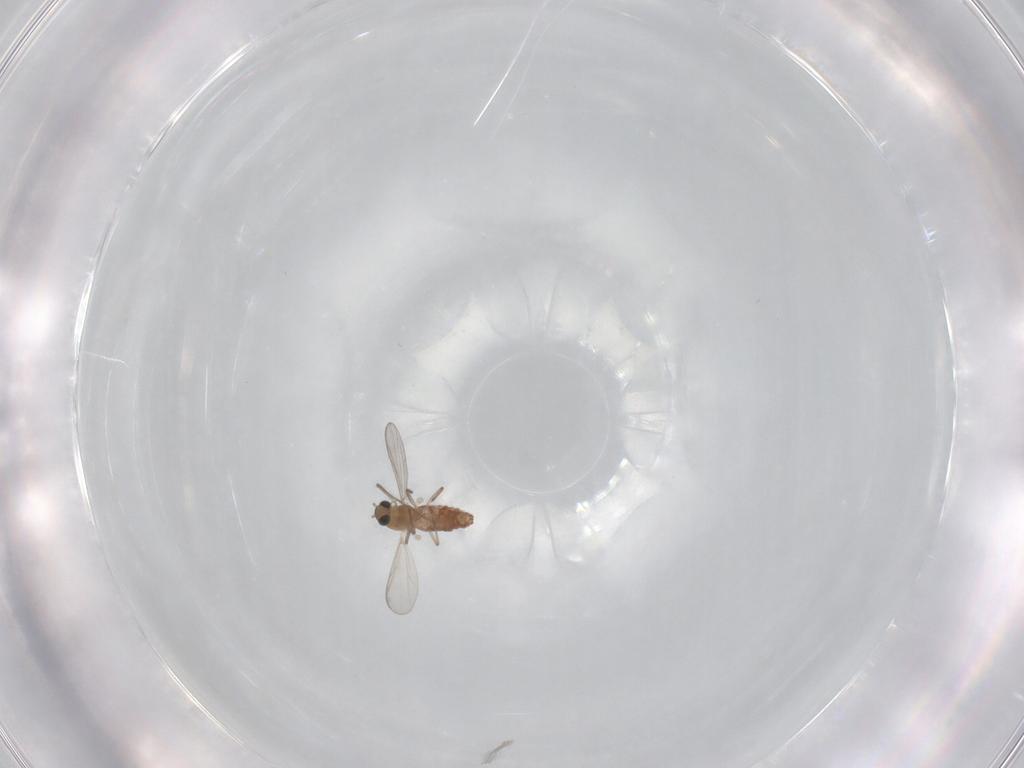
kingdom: Animalia
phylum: Arthropoda
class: Insecta
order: Diptera
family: Chironomidae
